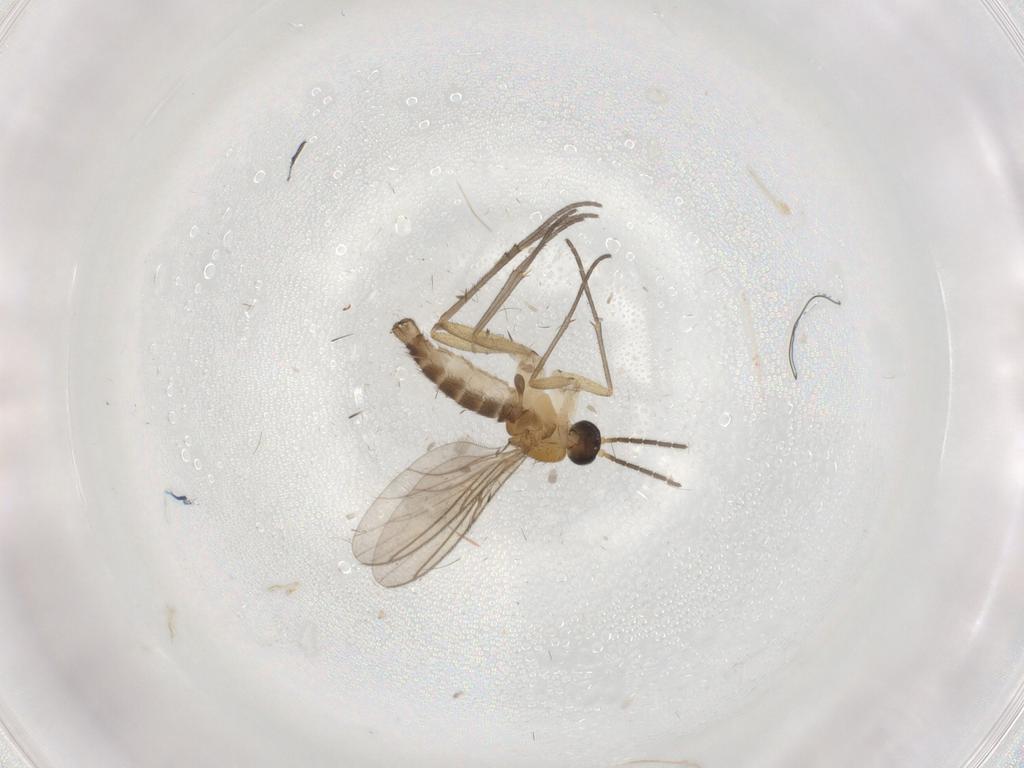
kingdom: Animalia
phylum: Arthropoda
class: Insecta
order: Diptera
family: Sciaridae
